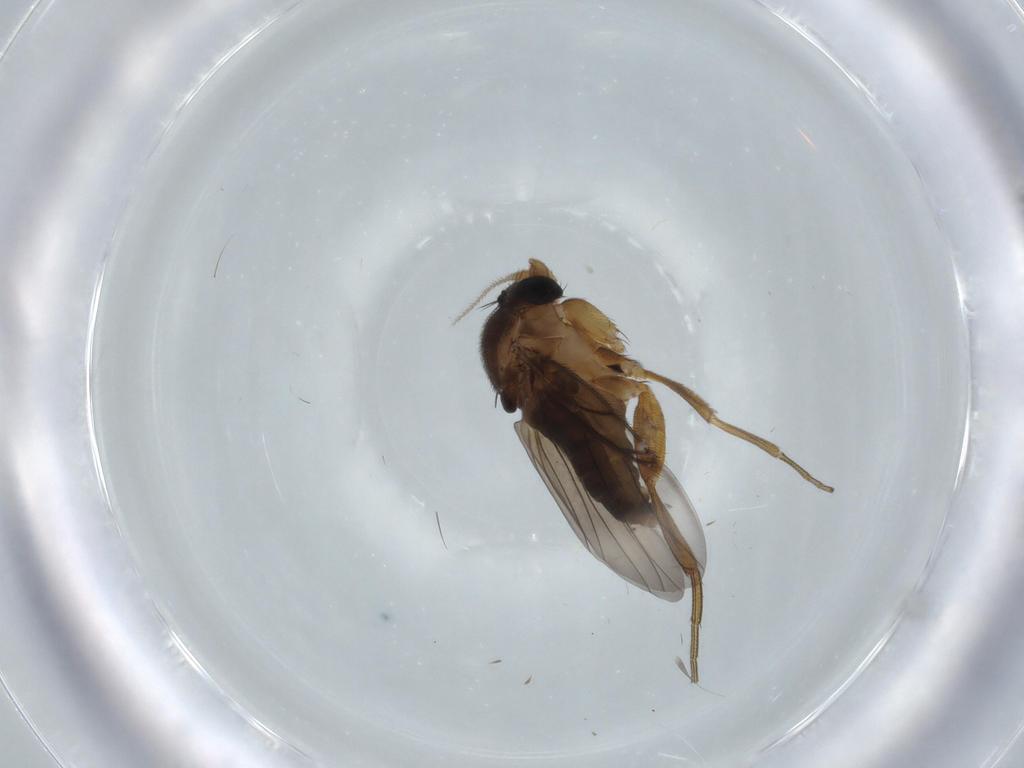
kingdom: Animalia
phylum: Arthropoda
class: Insecta
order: Diptera
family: Phoridae
